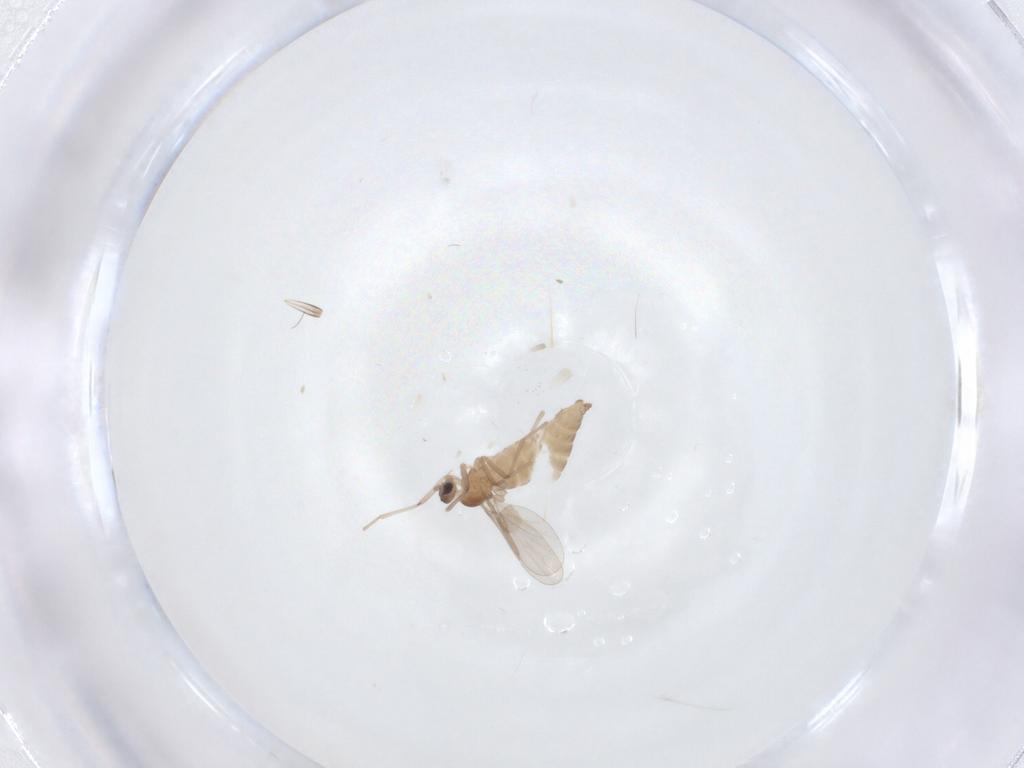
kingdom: Animalia
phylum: Arthropoda
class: Insecta
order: Diptera
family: Cecidomyiidae
